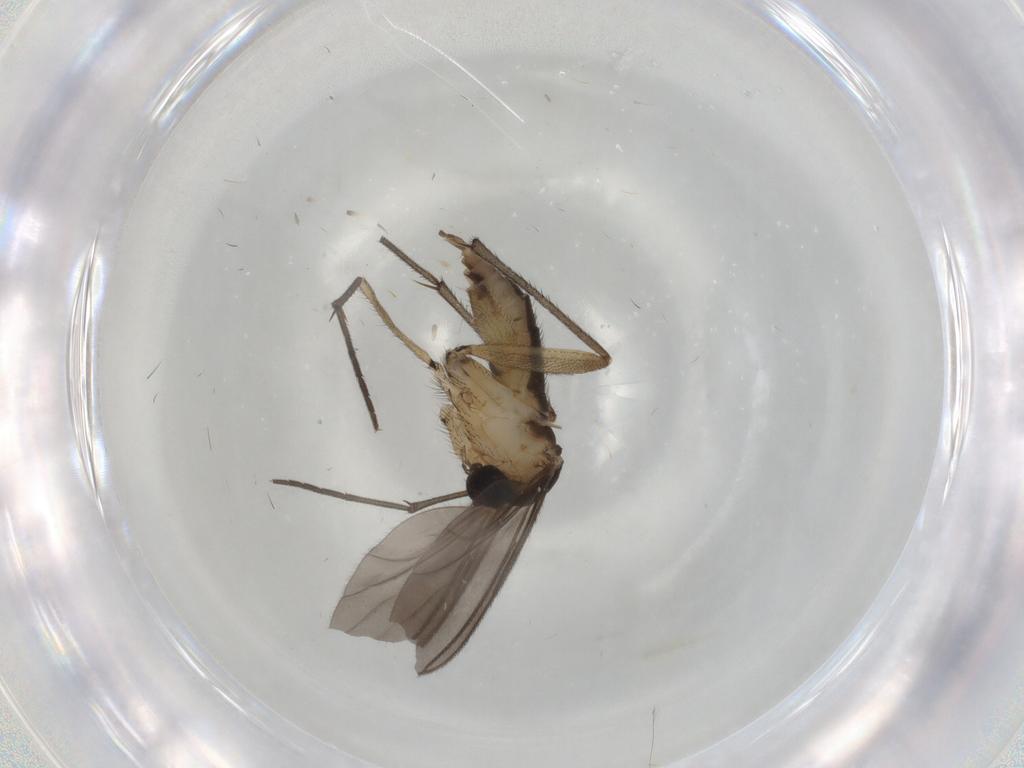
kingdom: Animalia
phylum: Arthropoda
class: Insecta
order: Diptera
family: Sciaridae
